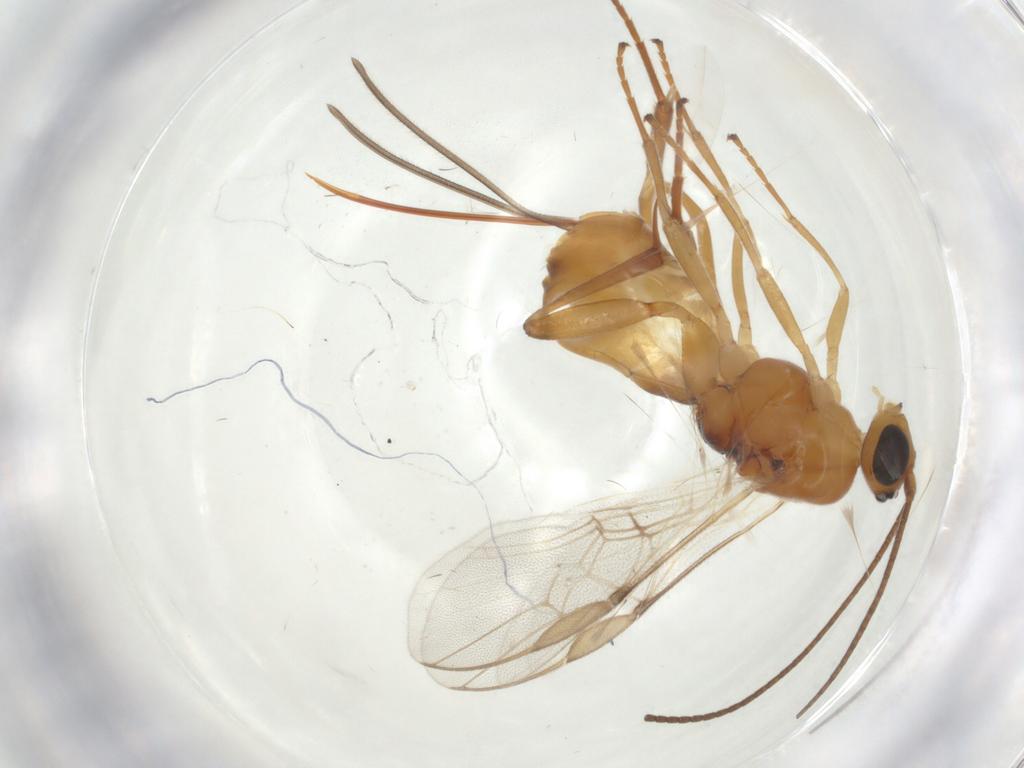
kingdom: Animalia
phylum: Arthropoda
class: Insecta
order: Hymenoptera
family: Braconidae
